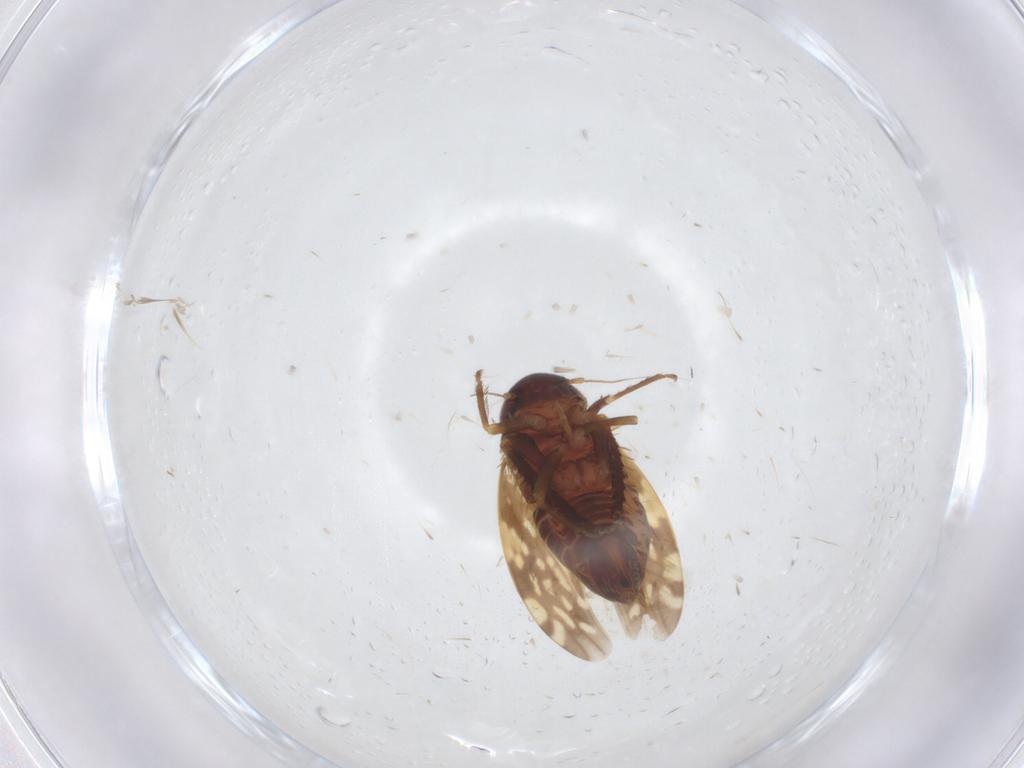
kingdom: Animalia
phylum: Arthropoda
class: Insecta
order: Hemiptera
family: Cicadellidae
